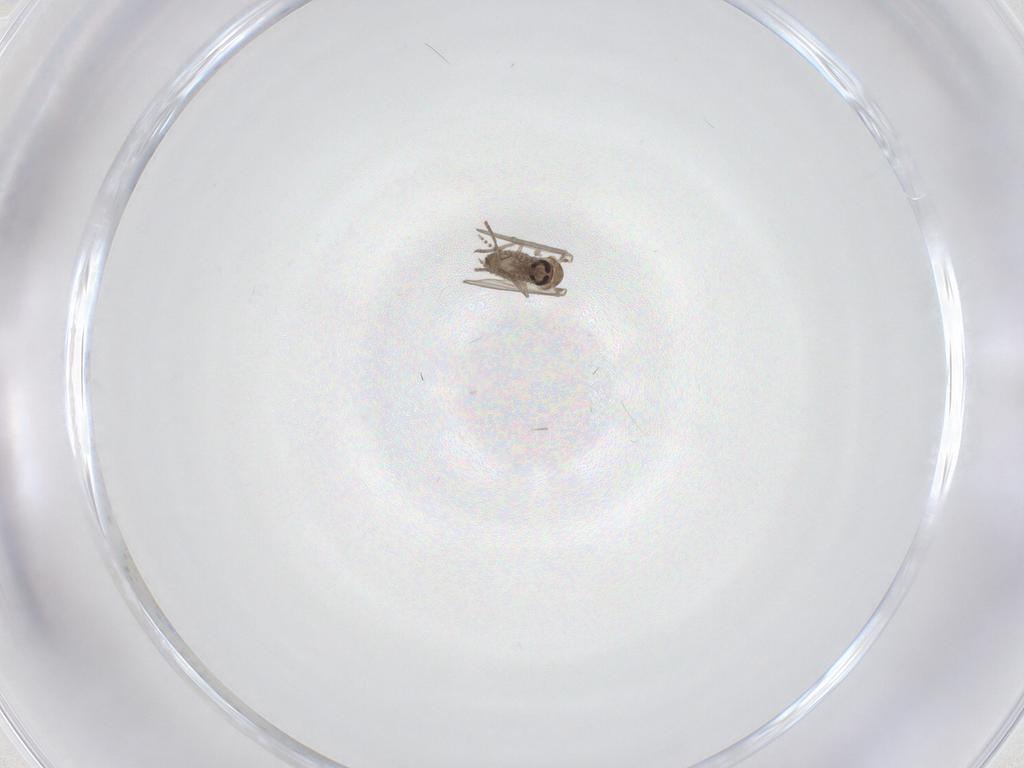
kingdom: Animalia
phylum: Arthropoda
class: Insecta
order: Diptera
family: Psychodidae
